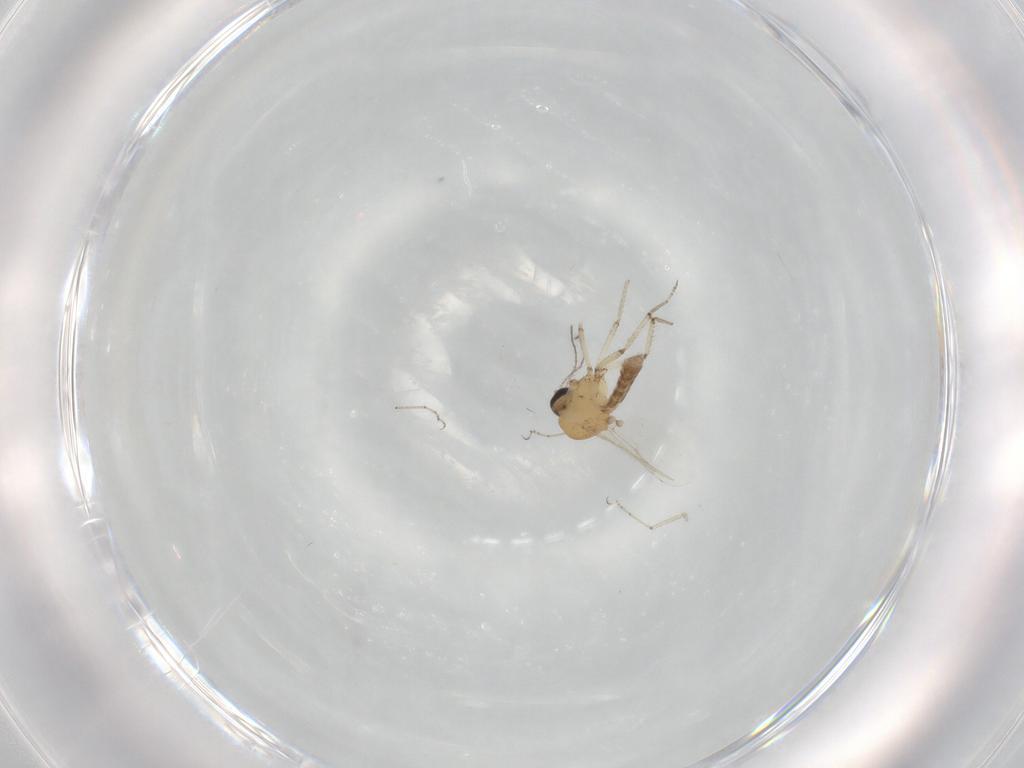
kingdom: Animalia
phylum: Arthropoda
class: Insecta
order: Diptera
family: Ceratopogonidae
